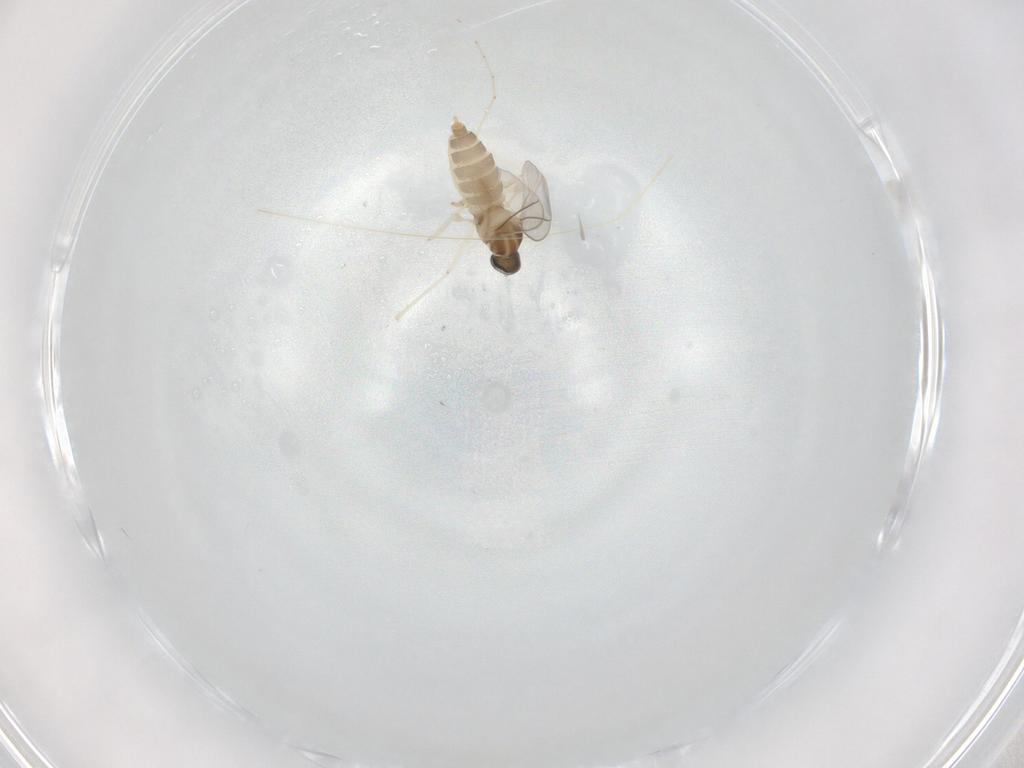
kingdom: Animalia
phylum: Arthropoda
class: Insecta
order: Diptera
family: Cecidomyiidae
